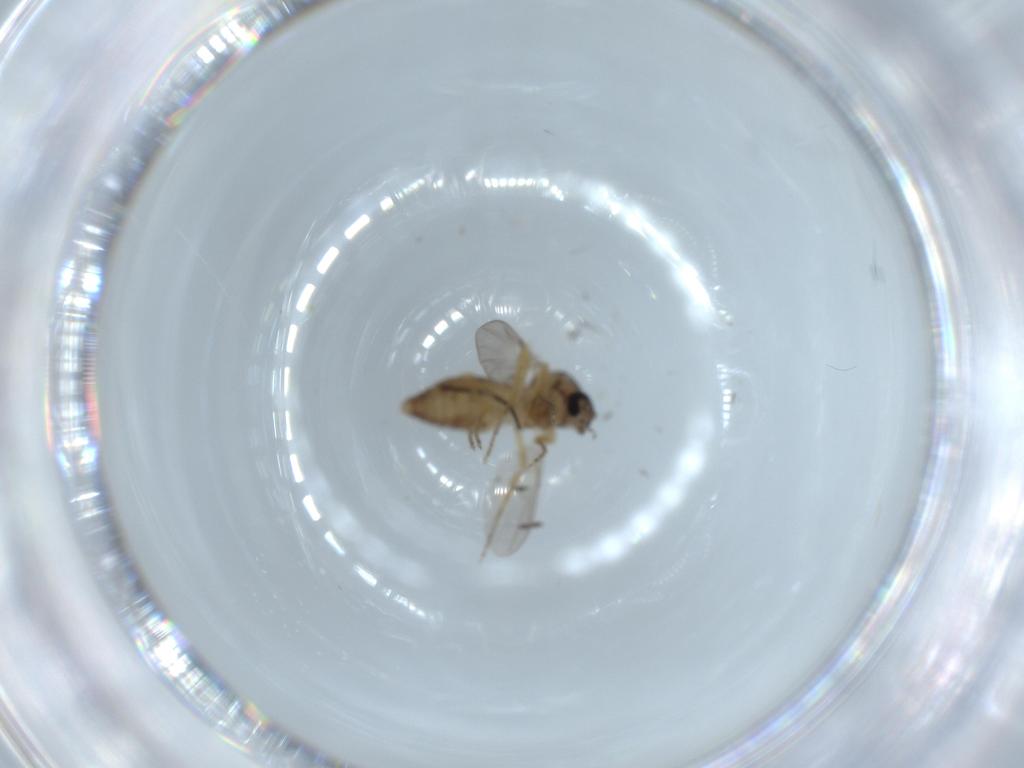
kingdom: Animalia
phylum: Arthropoda
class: Insecta
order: Diptera
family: Ceratopogonidae
